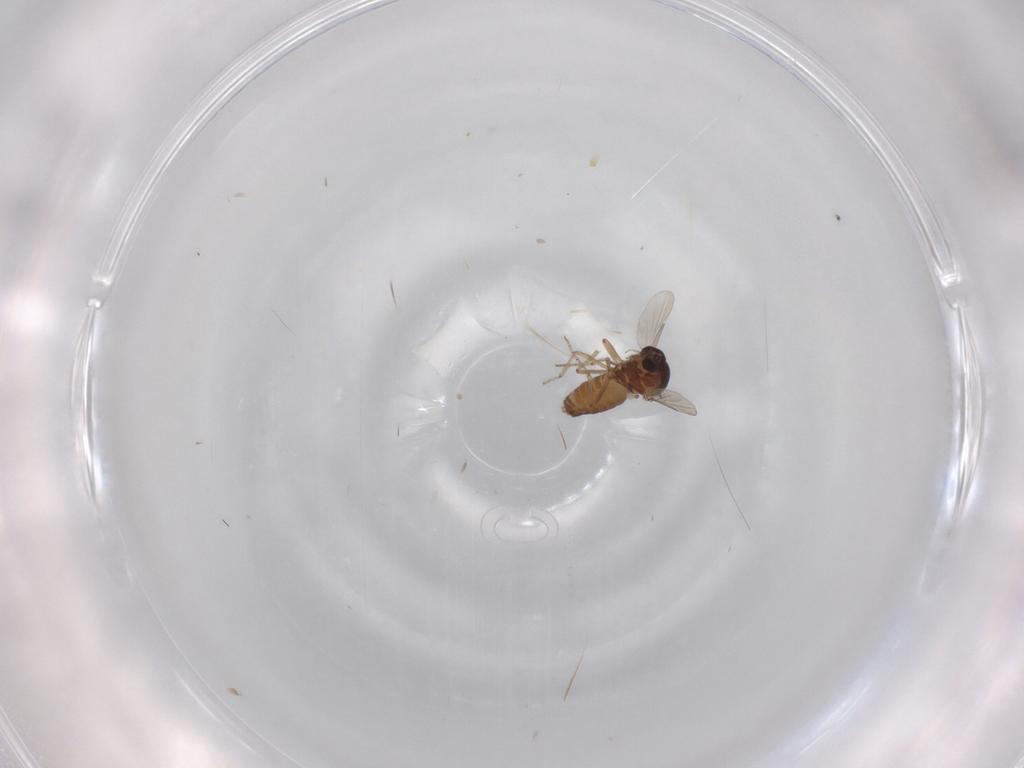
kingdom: Animalia
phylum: Arthropoda
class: Insecta
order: Diptera
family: Ceratopogonidae
